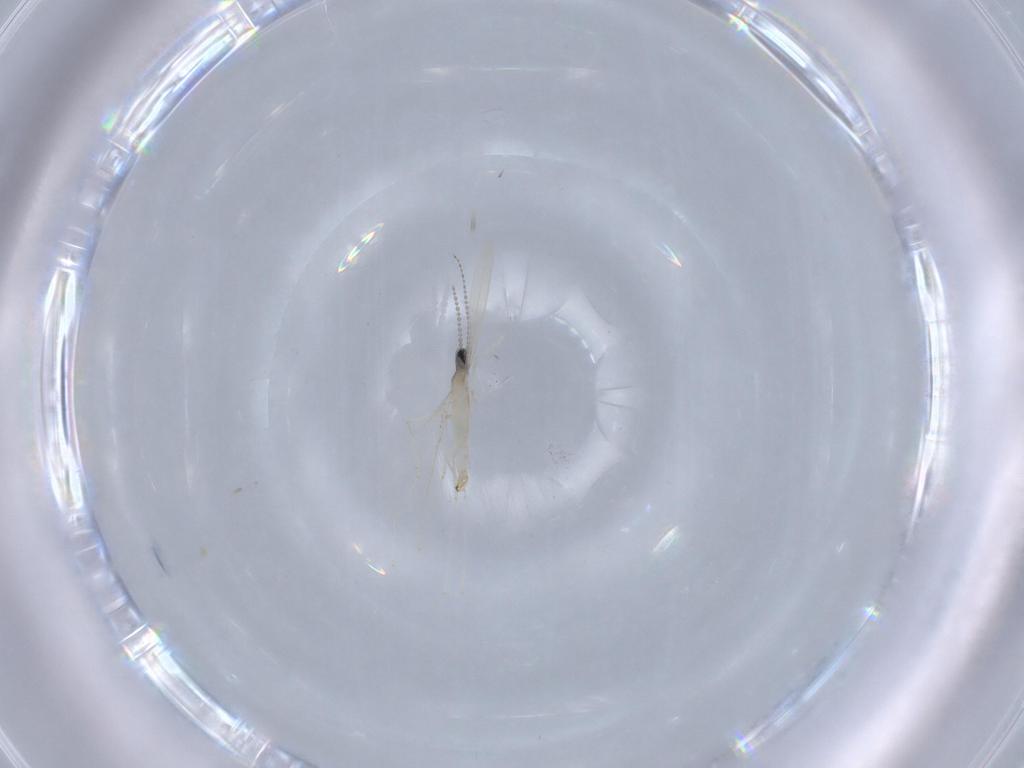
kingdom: Animalia
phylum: Arthropoda
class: Insecta
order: Diptera
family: Cecidomyiidae
